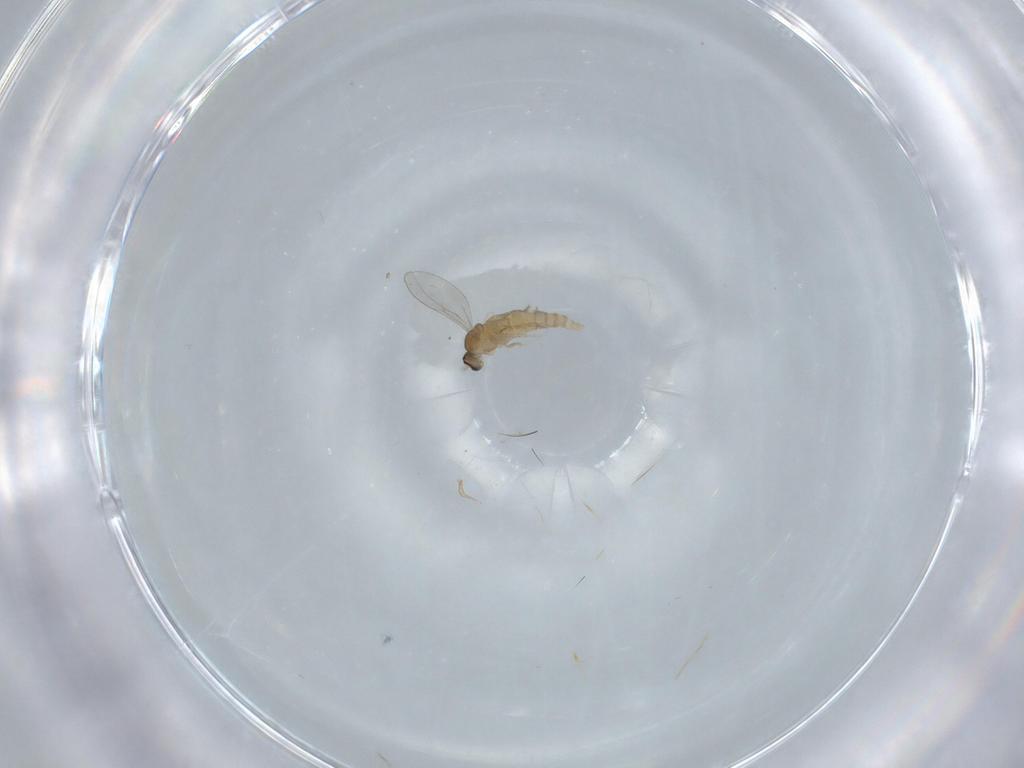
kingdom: Animalia
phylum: Arthropoda
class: Insecta
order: Diptera
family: Cecidomyiidae
